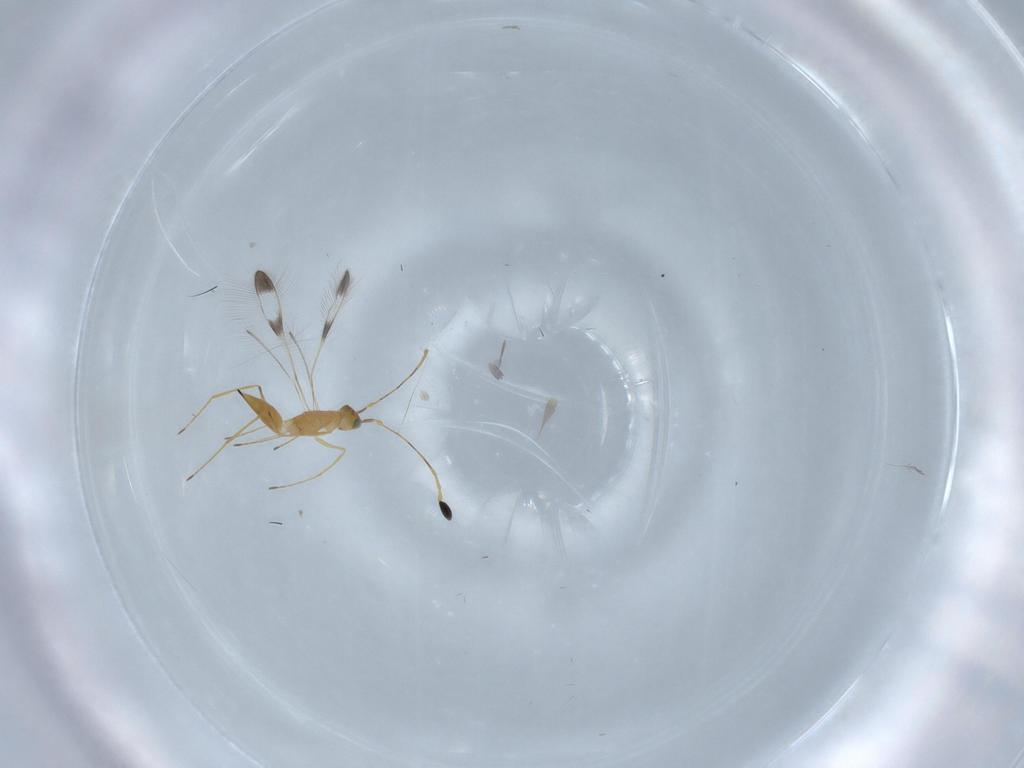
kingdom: Animalia
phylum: Arthropoda
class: Insecta
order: Hymenoptera
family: Mymaridae
